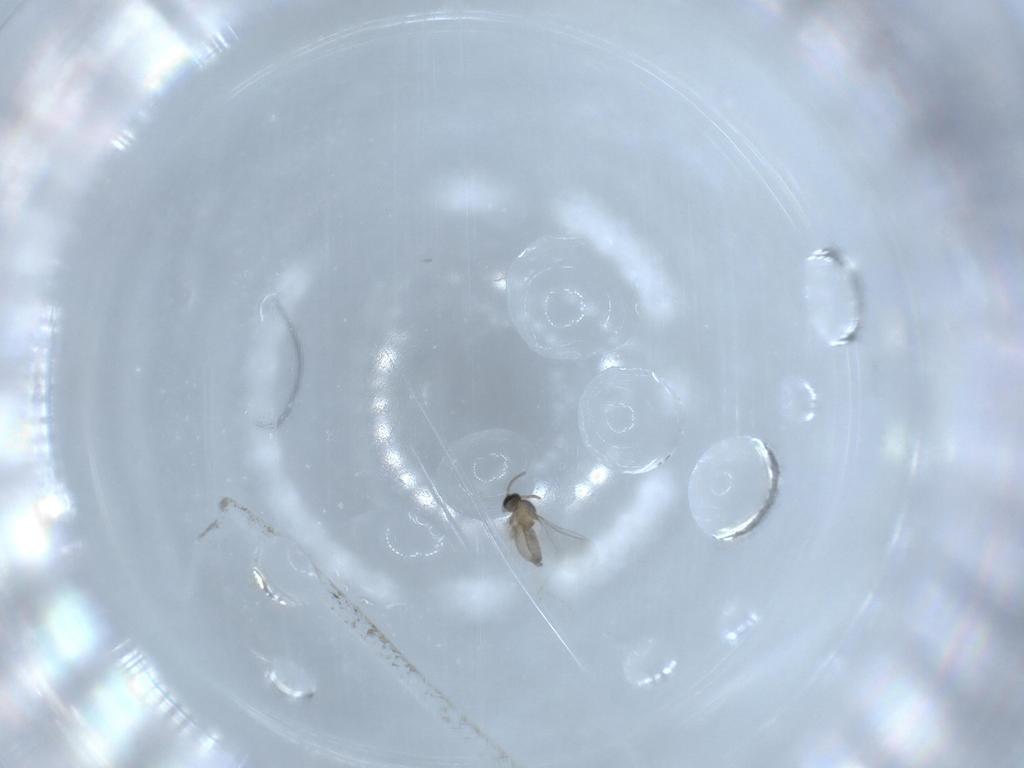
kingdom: Animalia
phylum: Arthropoda
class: Insecta
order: Diptera
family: Cecidomyiidae
